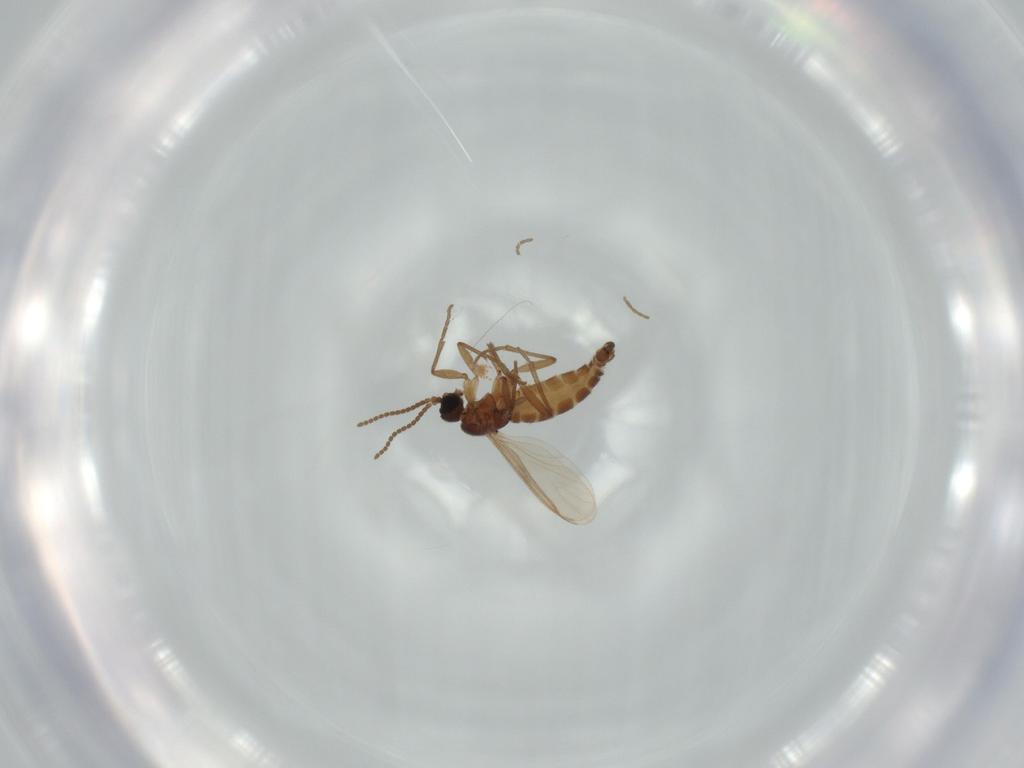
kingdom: Animalia
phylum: Arthropoda
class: Insecta
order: Diptera
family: Sciaridae
